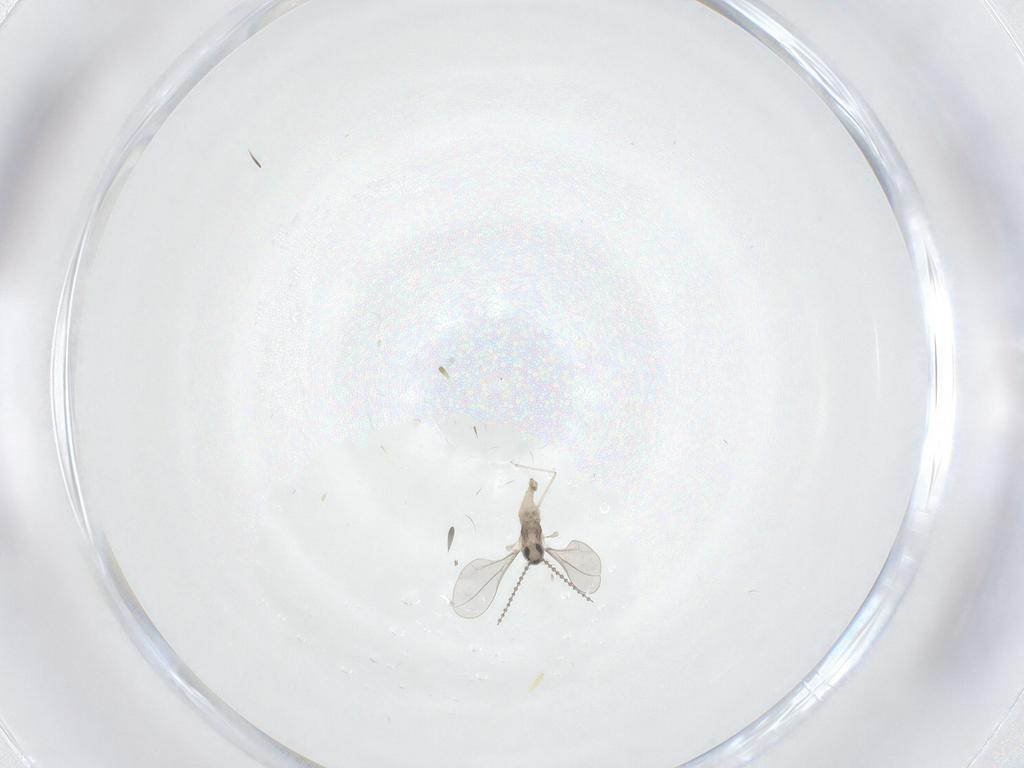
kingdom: Animalia
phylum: Arthropoda
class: Insecta
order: Diptera
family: Cecidomyiidae
